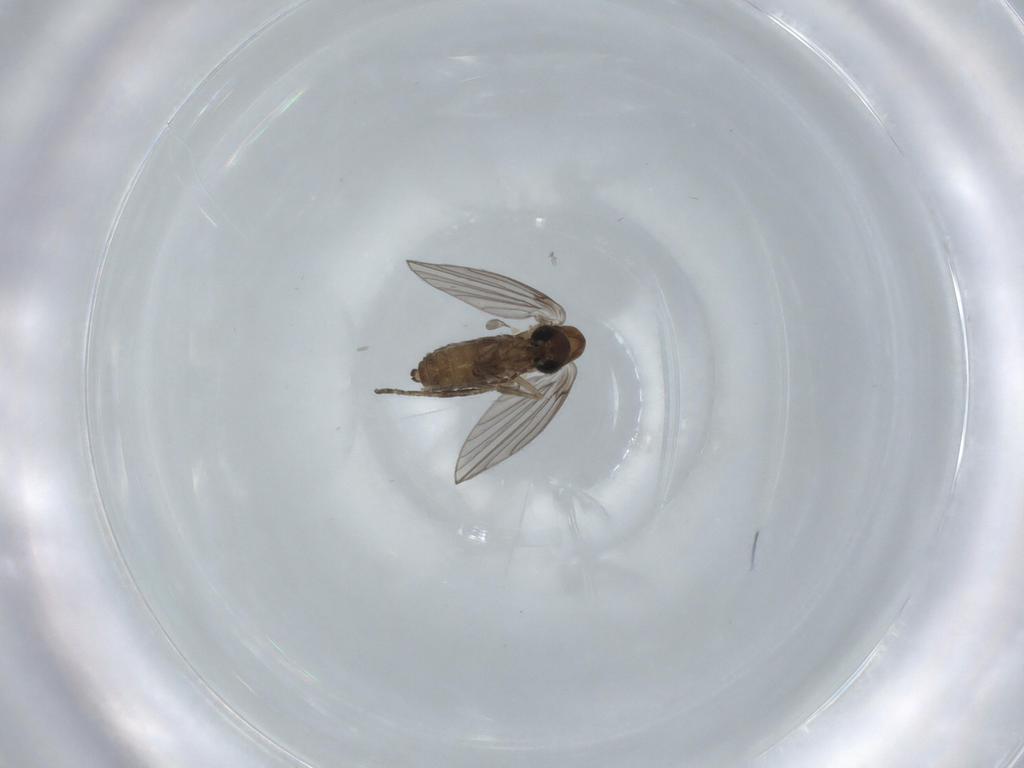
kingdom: Animalia
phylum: Arthropoda
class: Insecta
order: Diptera
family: Psychodidae
